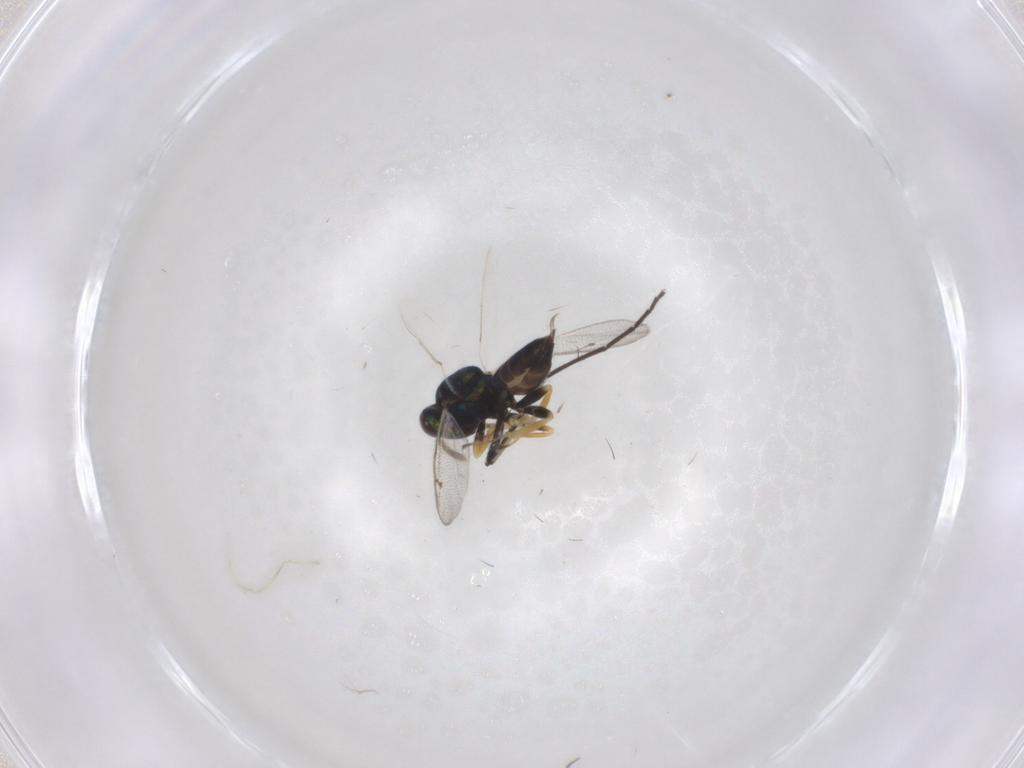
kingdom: Animalia
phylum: Arthropoda
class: Insecta
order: Hymenoptera
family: Pteromalidae
